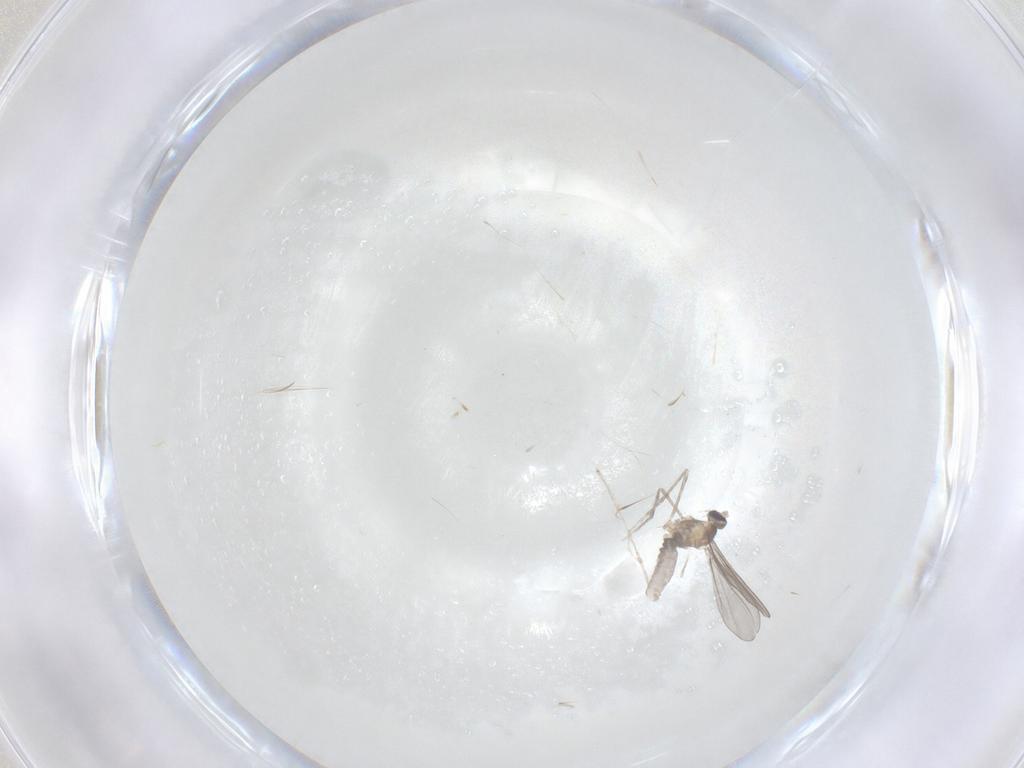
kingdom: Animalia
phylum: Arthropoda
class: Insecta
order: Diptera
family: Cecidomyiidae
